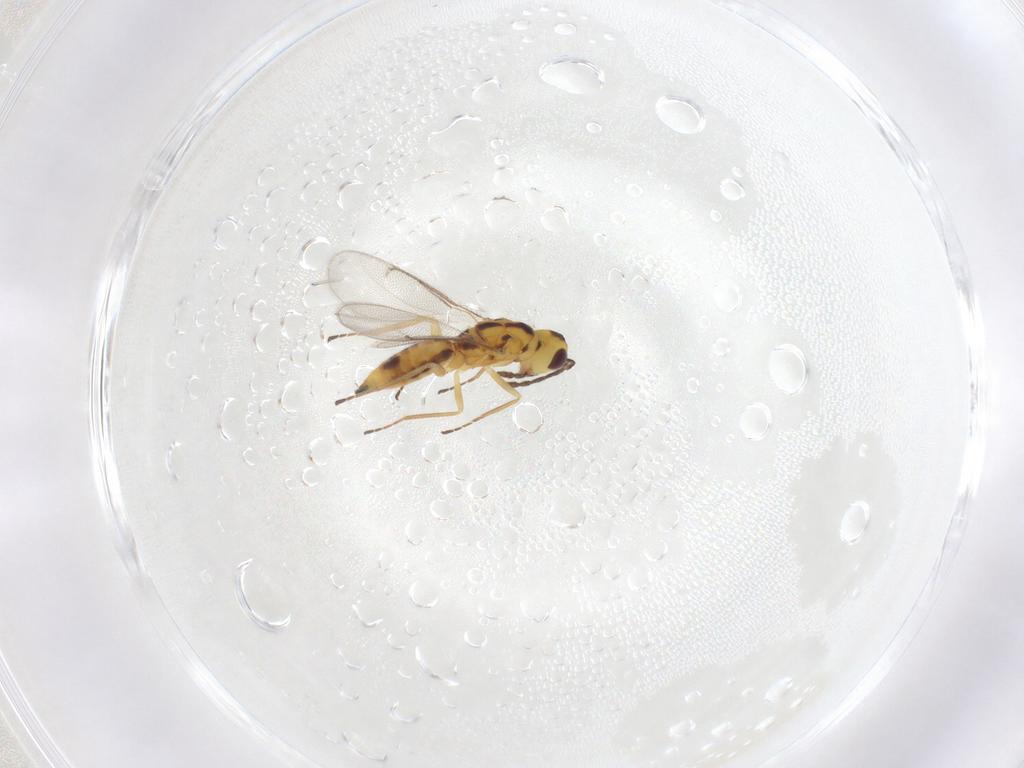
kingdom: Animalia
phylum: Arthropoda
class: Insecta
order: Hymenoptera
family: Eulophidae
